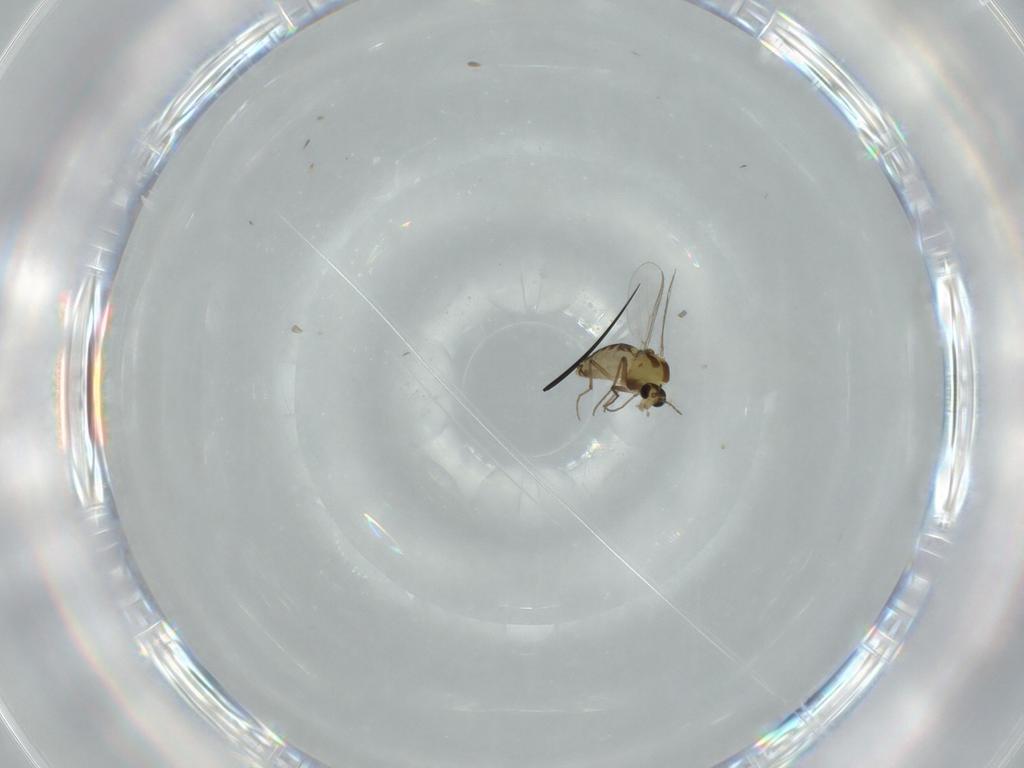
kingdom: Animalia
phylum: Arthropoda
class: Insecta
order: Diptera
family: Chironomidae
